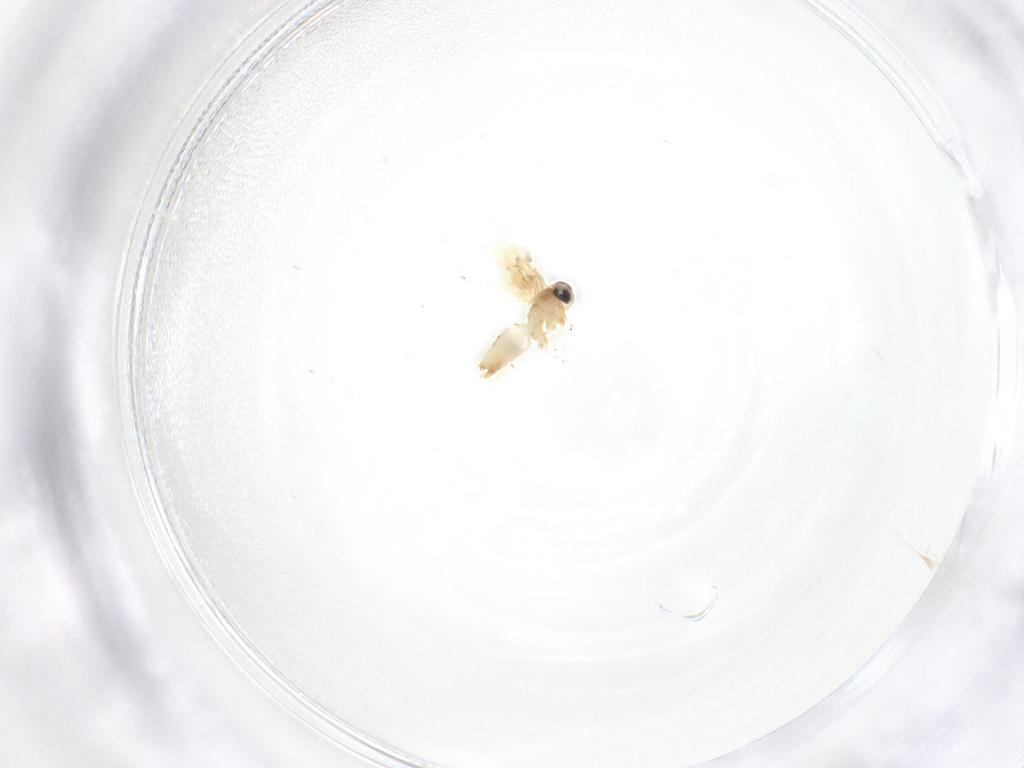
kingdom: Animalia
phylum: Arthropoda
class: Insecta
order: Lepidoptera
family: Crambidae
